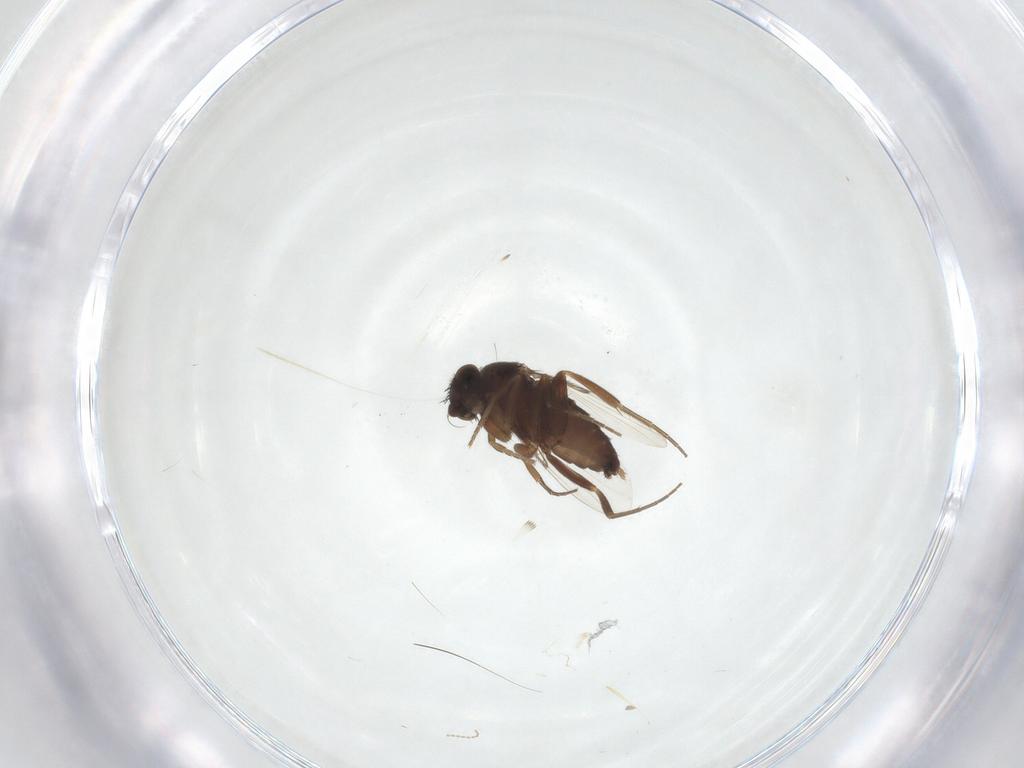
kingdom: Animalia
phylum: Arthropoda
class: Insecta
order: Diptera
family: Phoridae
